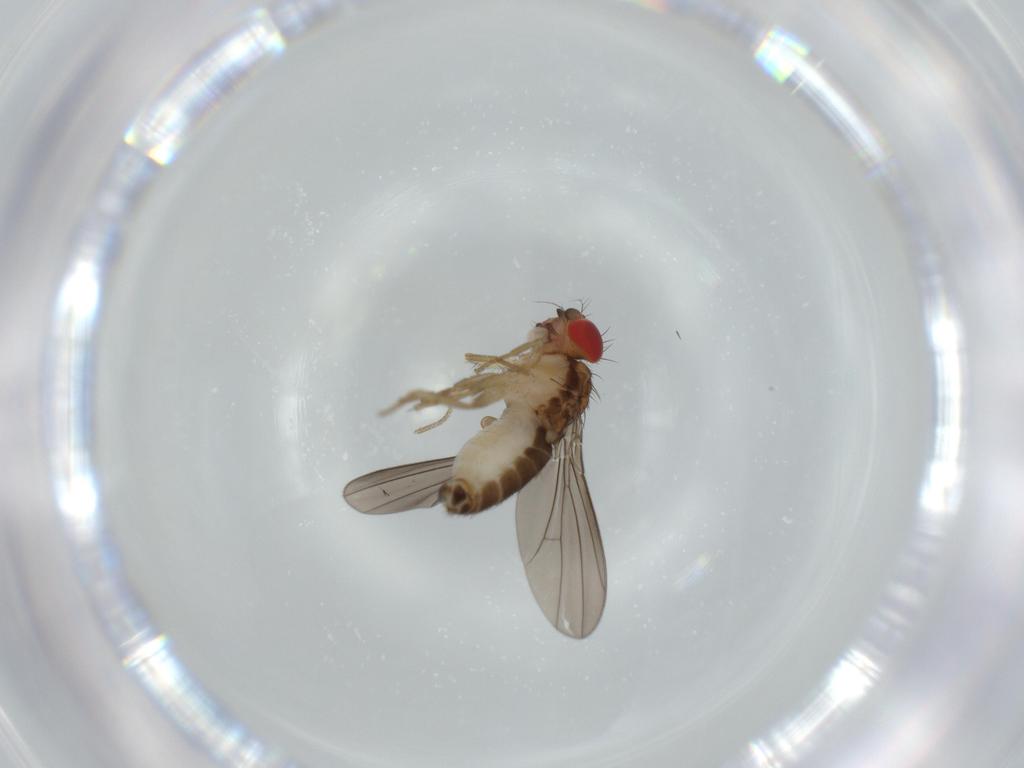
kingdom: Animalia
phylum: Arthropoda
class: Insecta
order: Diptera
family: Drosophilidae
